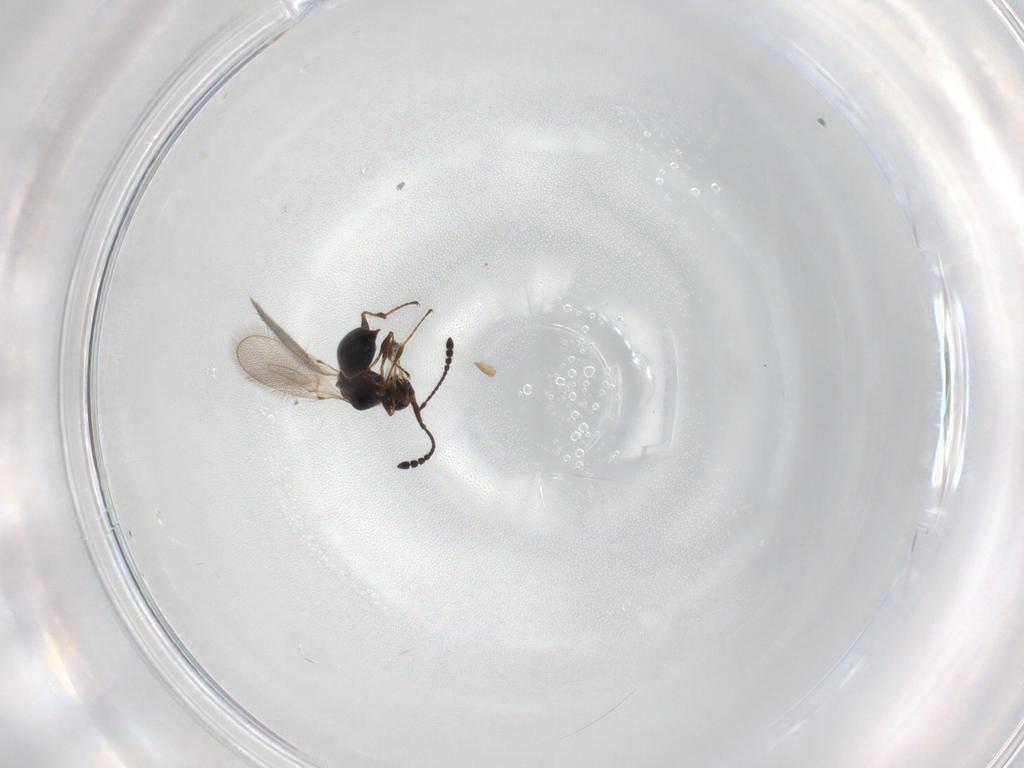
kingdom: Animalia
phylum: Arthropoda
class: Insecta
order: Hymenoptera
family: Diapriidae
